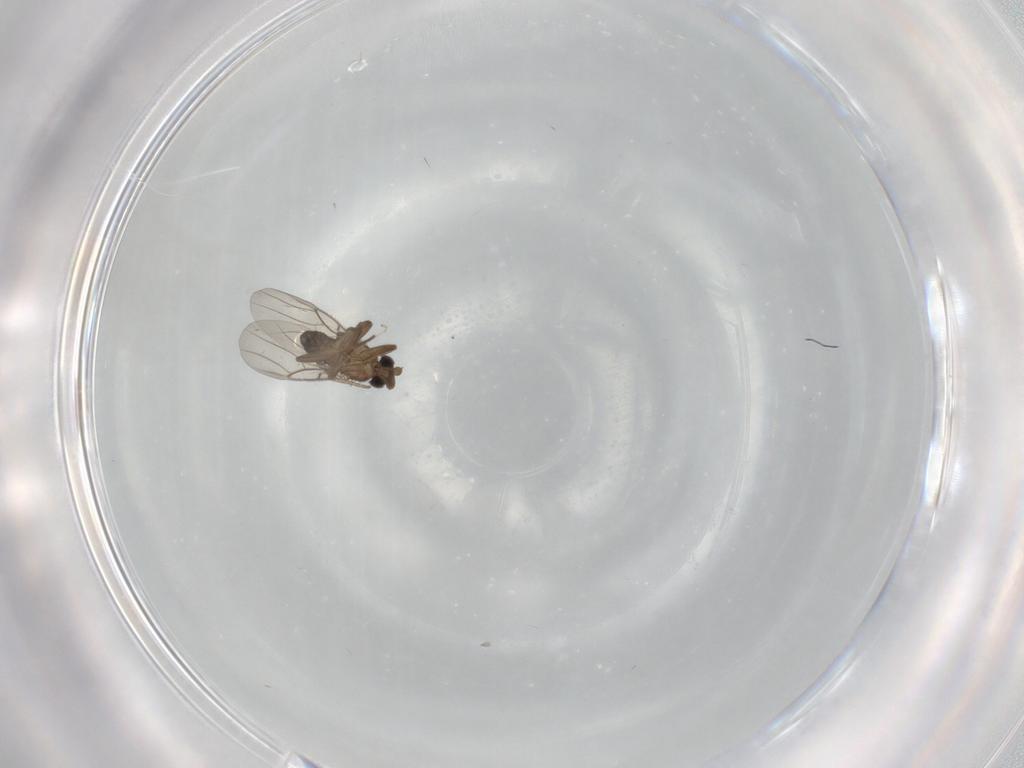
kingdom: Animalia
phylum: Arthropoda
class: Insecta
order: Diptera
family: Phoridae
